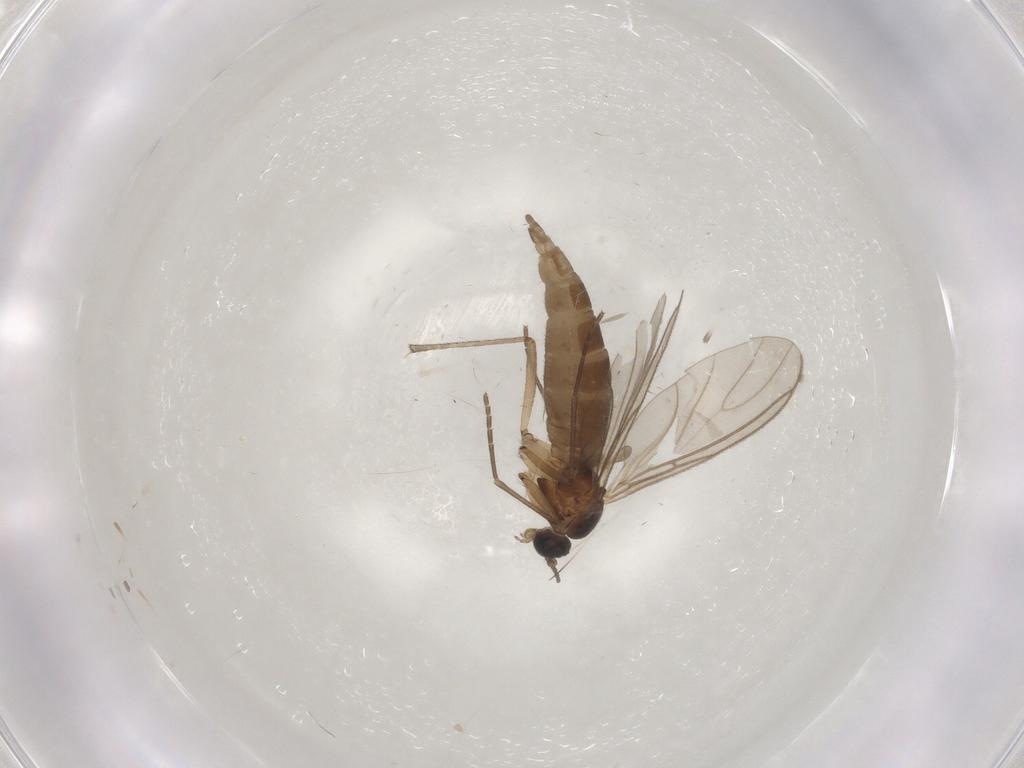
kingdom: Animalia
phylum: Arthropoda
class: Insecta
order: Diptera
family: Sciaridae
